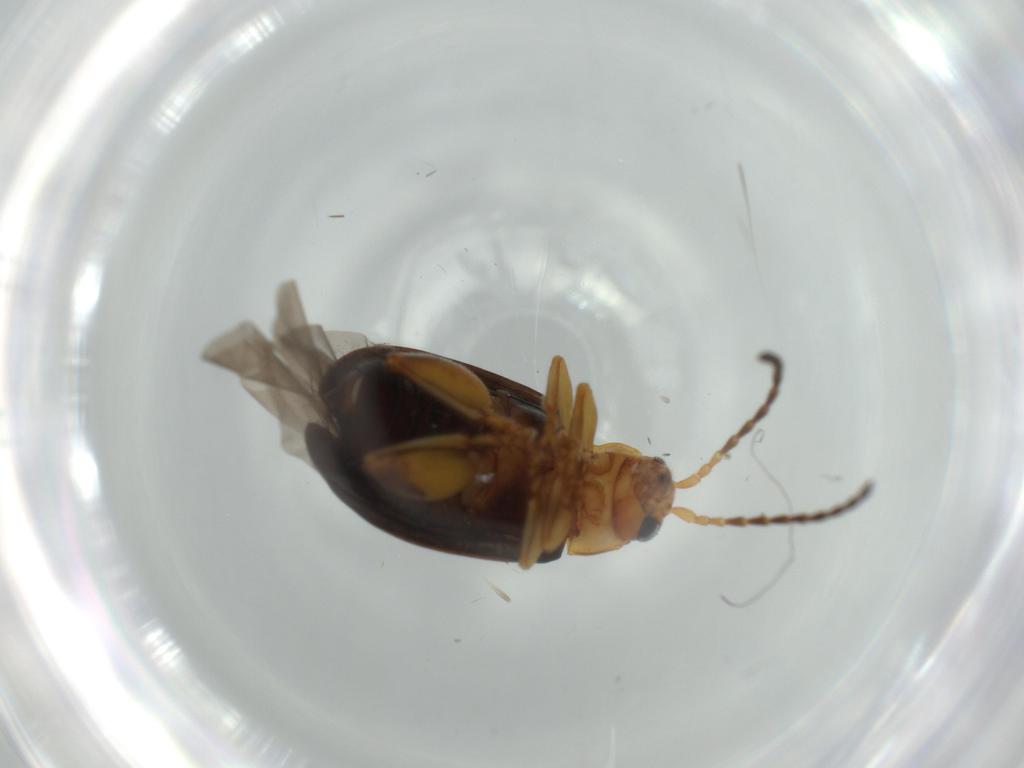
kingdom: Animalia
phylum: Arthropoda
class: Insecta
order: Coleoptera
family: Chrysomelidae
